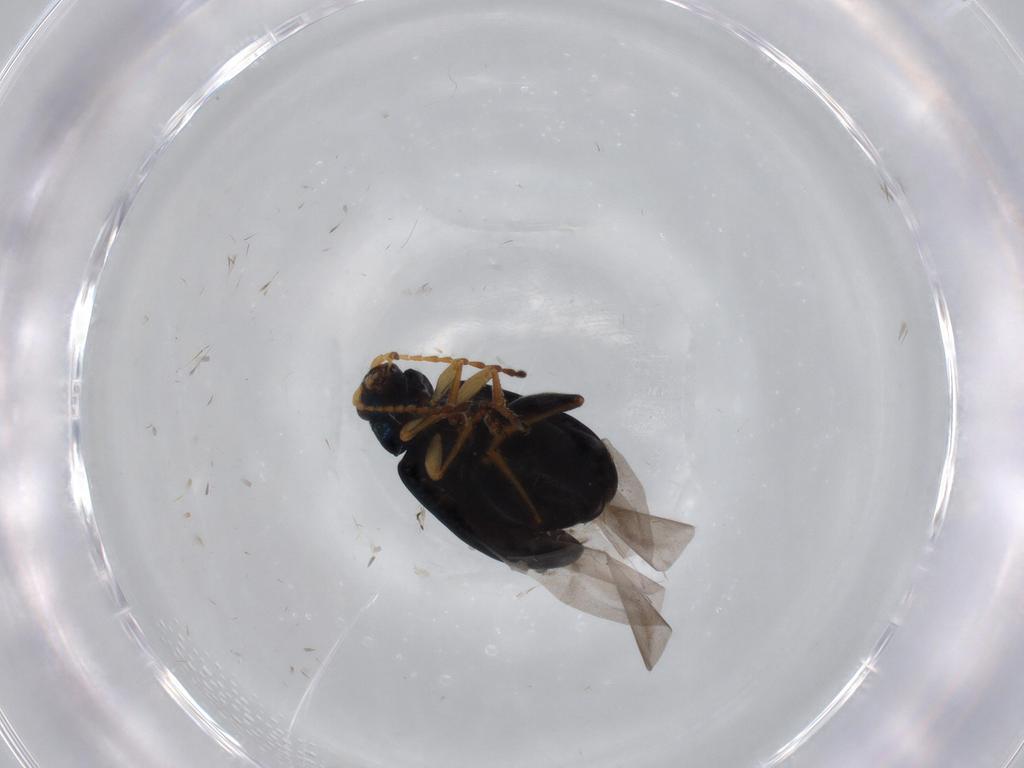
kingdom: Animalia
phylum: Arthropoda
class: Insecta
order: Coleoptera
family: Chrysomelidae
